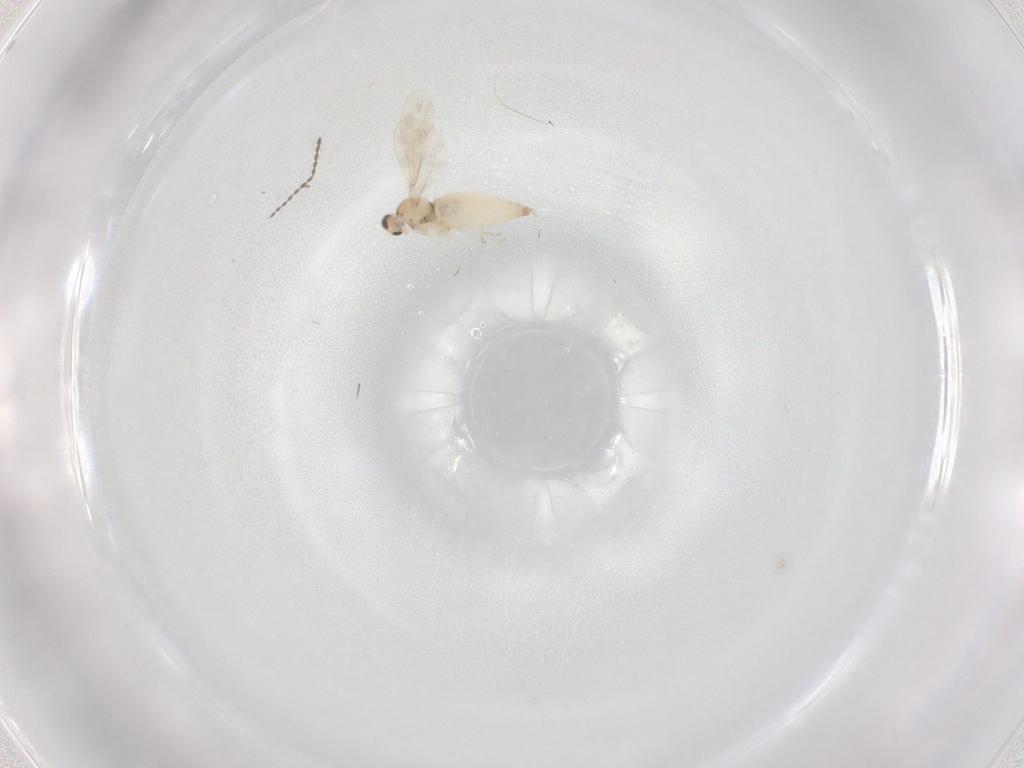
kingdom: Animalia
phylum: Arthropoda
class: Insecta
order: Diptera
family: Cecidomyiidae
